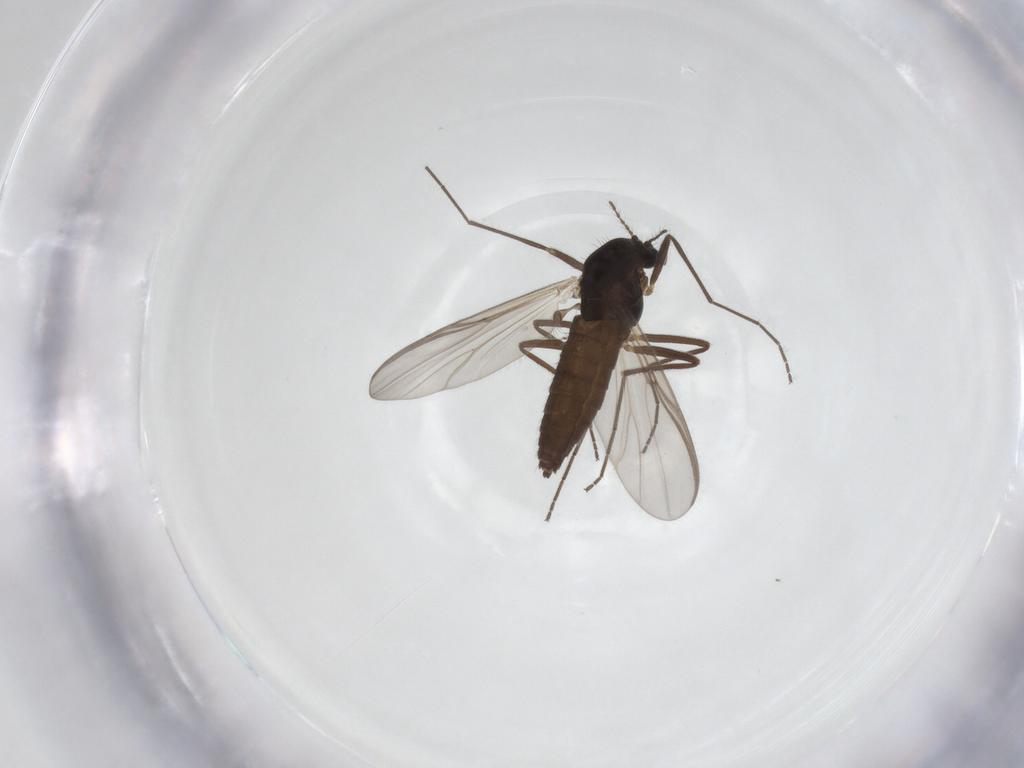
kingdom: Animalia
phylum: Arthropoda
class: Insecta
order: Diptera
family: Chironomidae
